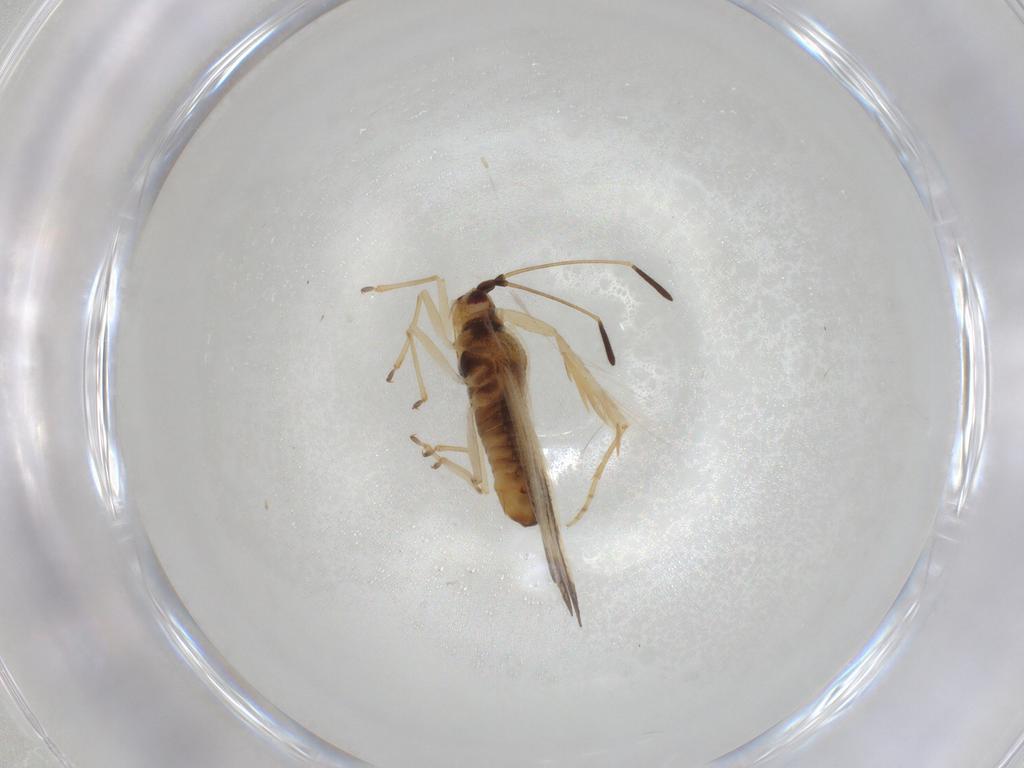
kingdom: Animalia
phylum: Arthropoda
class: Insecta
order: Hemiptera
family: Tingidae
